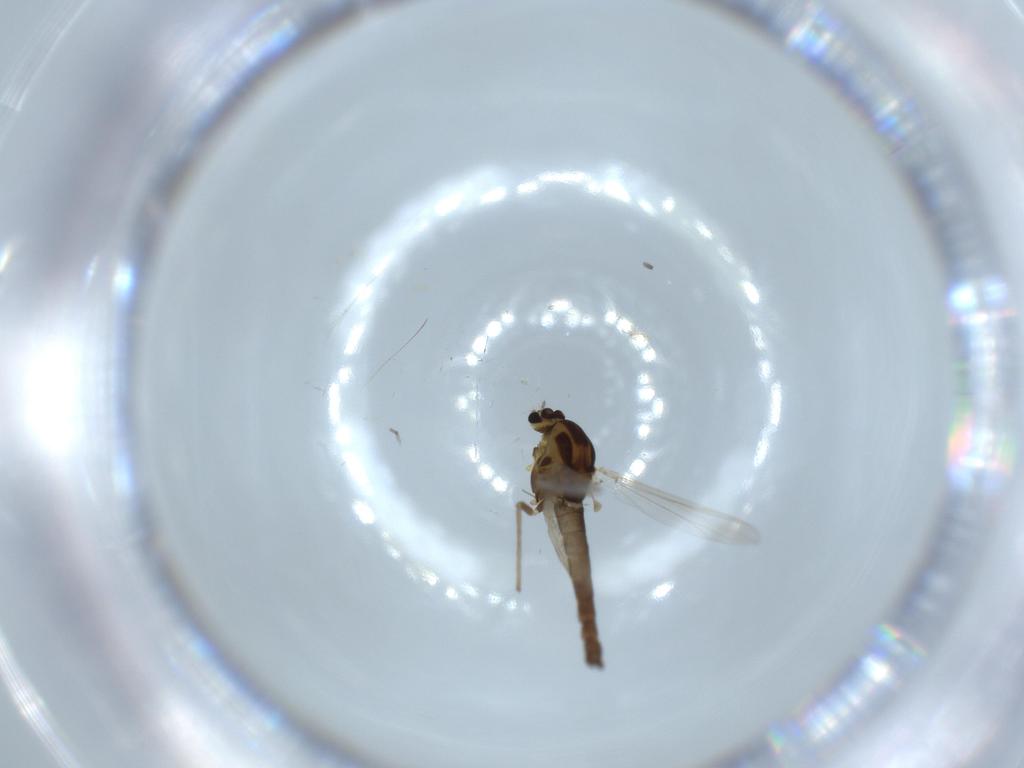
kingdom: Animalia
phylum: Arthropoda
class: Insecta
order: Diptera
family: Chironomidae
